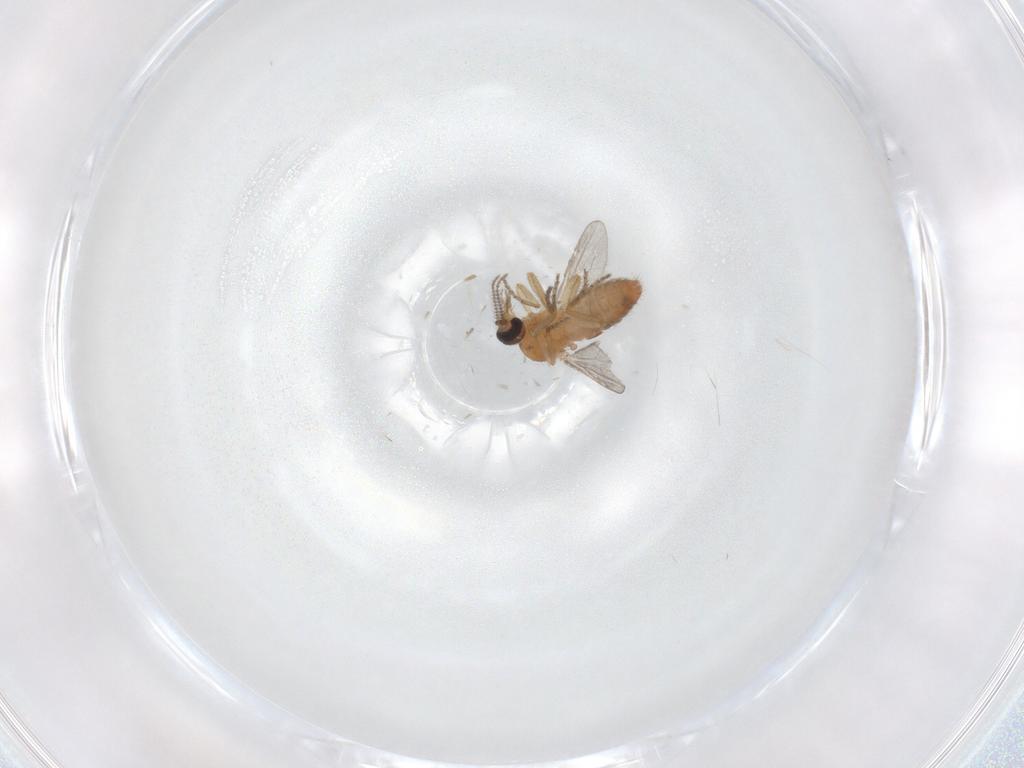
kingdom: Animalia
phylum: Arthropoda
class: Insecta
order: Diptera
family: Ceratopogonidae
